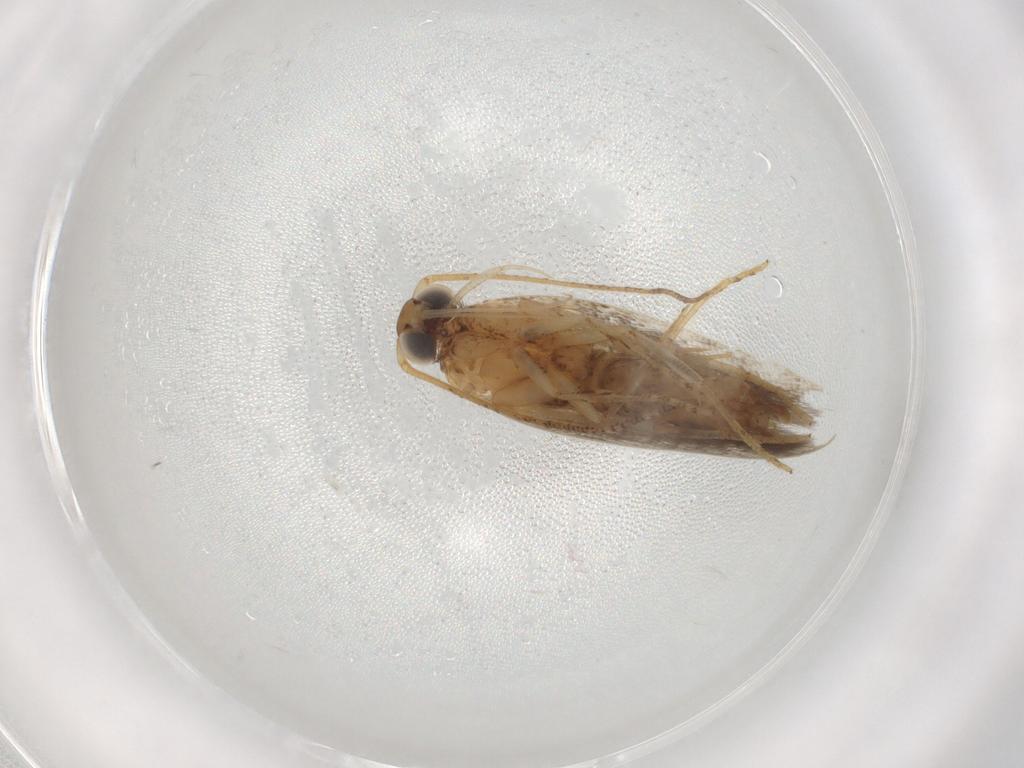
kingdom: Animalia
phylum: Arthropoda
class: Insecta
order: Lepidoptera
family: Plutellidae
